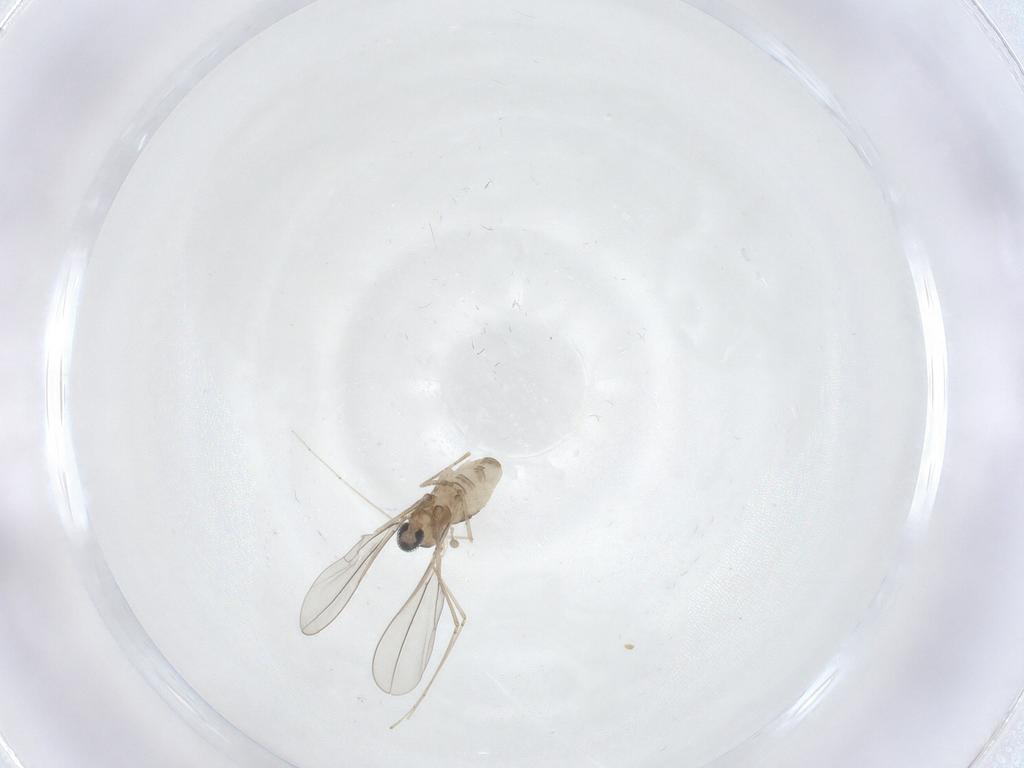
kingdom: Animalia
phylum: Arthropoda
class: Insecta
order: Diptera
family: Cecidomyiidae
